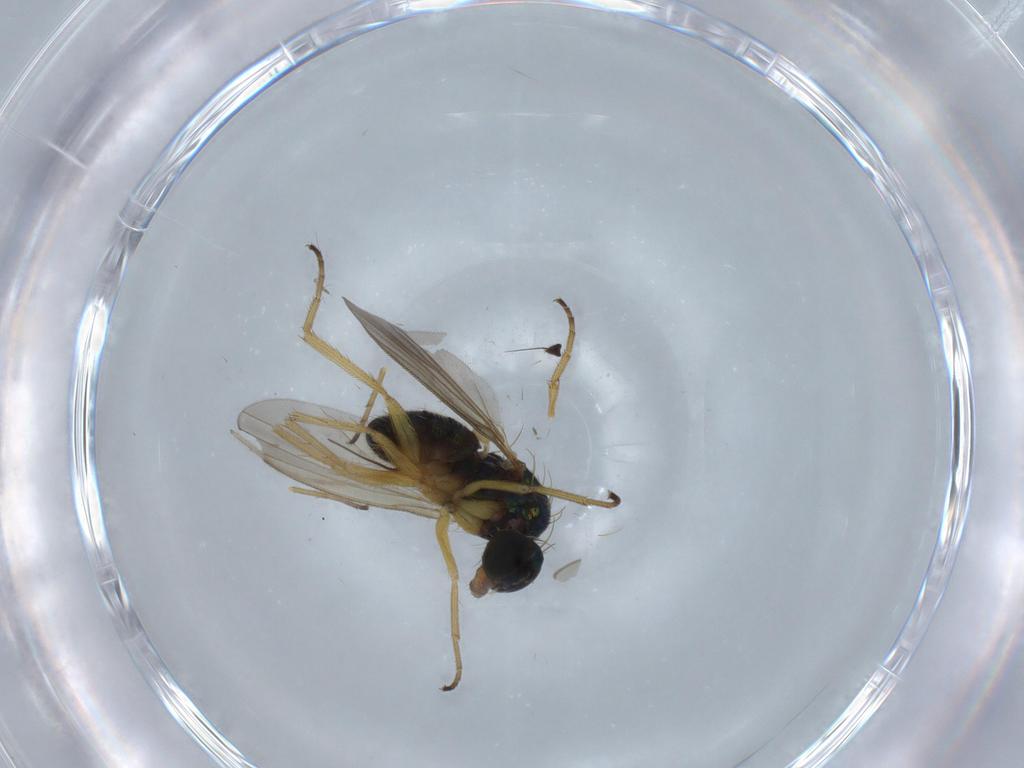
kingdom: Animalia
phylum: Arthropoda
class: Insecta
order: Diptera
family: Dolichopodidae
